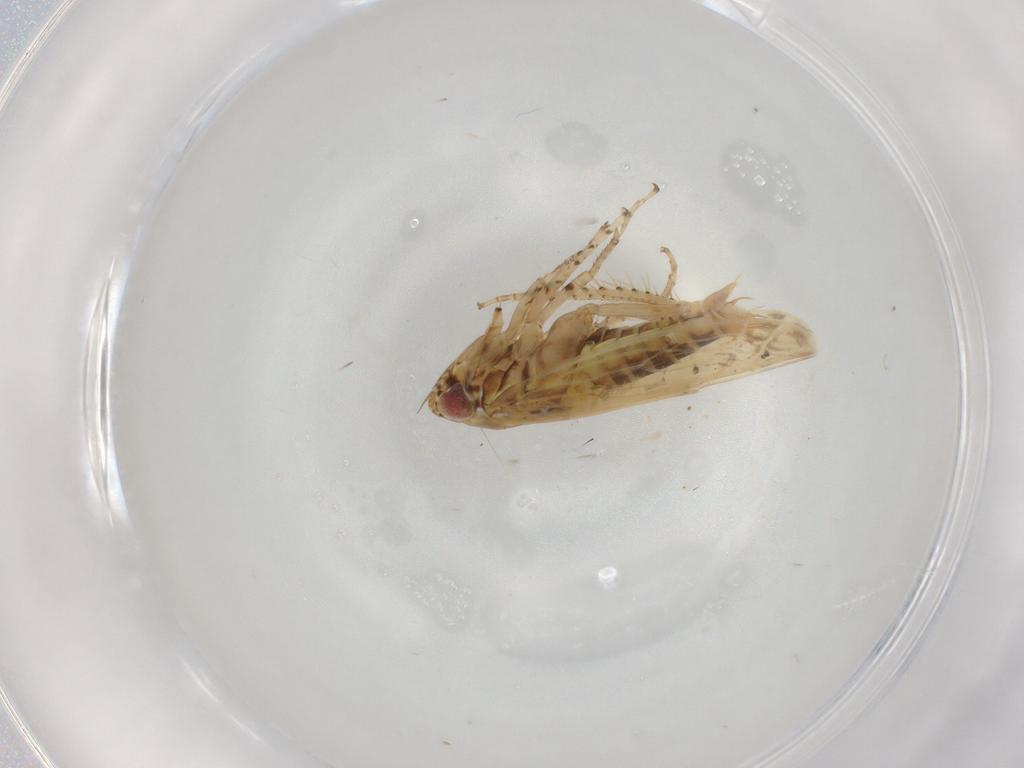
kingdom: Animalia
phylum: Arthropoda
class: Insecta
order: Hemiptera
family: Cicadellidae
